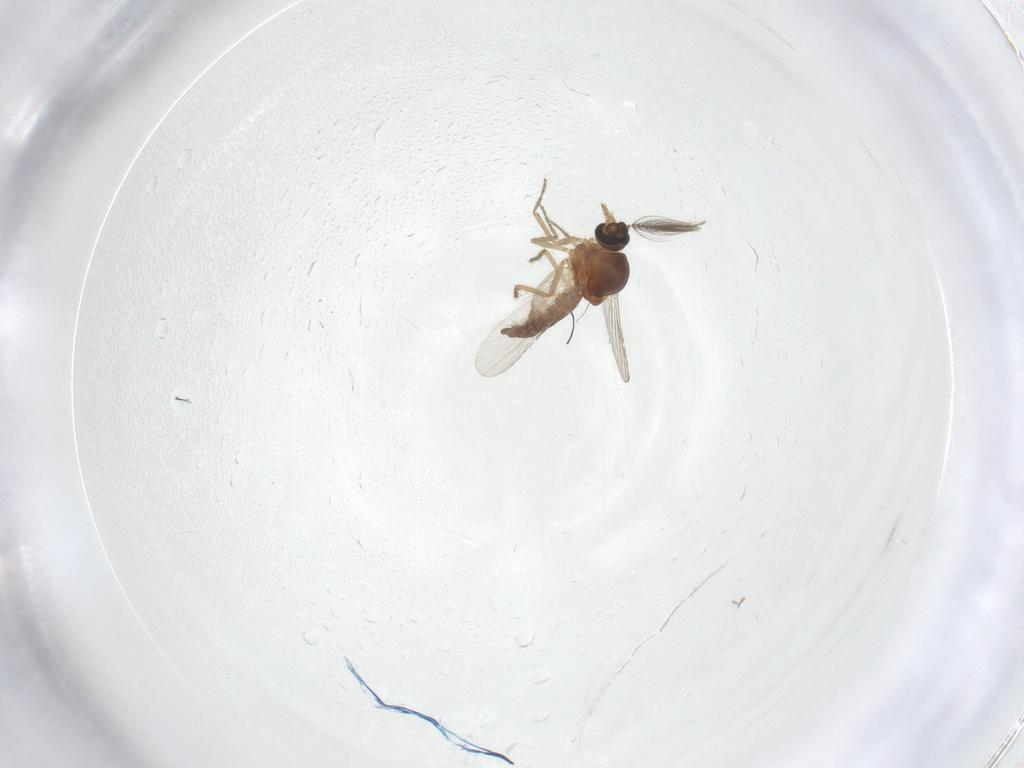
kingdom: Animalia
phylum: Arthropoda
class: Insecta
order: Diptera
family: Ceratopogonidae
